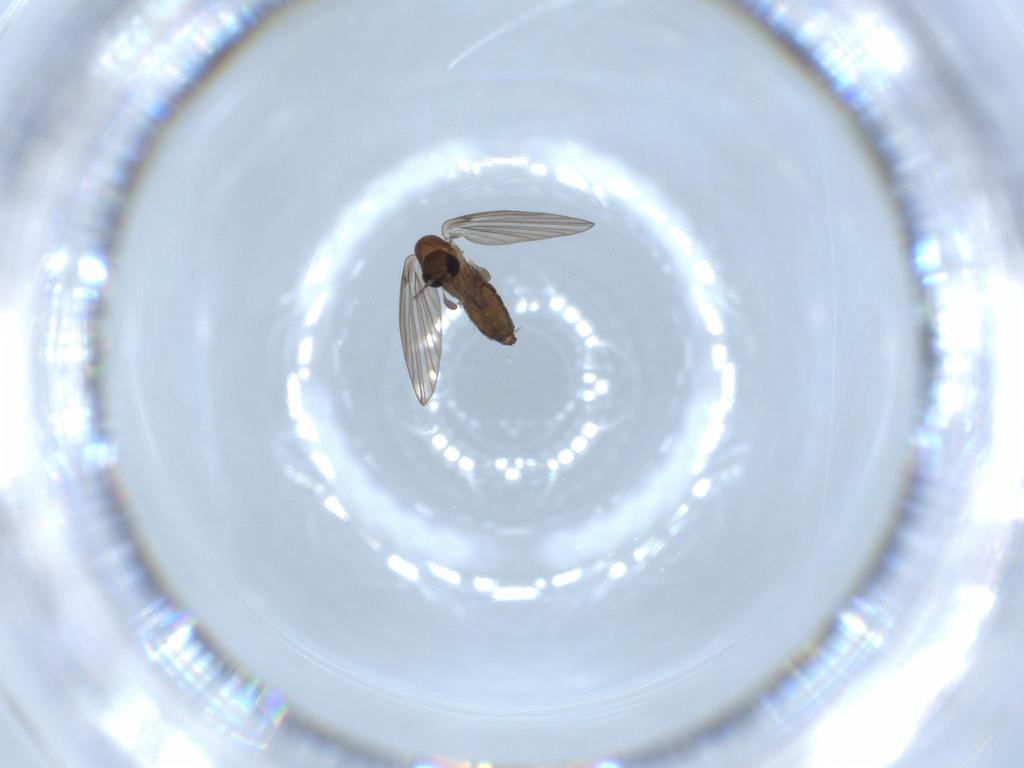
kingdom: Animalia
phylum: Arthropoda
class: Insecta
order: Diptera
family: Psychodidae
